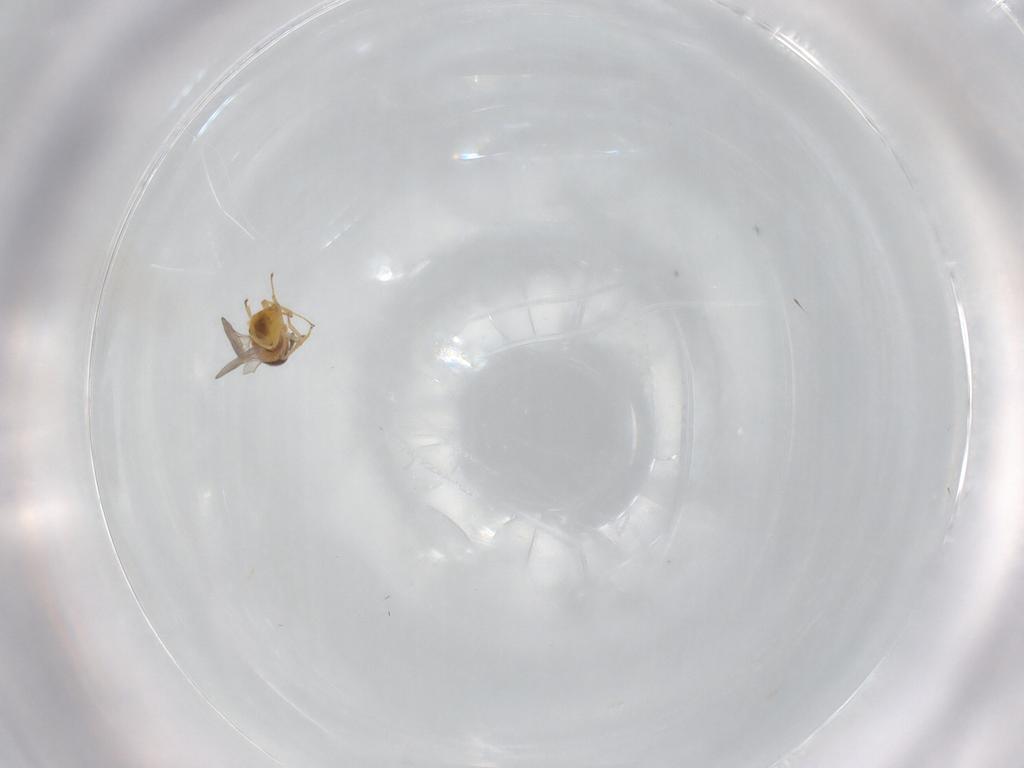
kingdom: Animalia
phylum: Arthropoda
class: Insecta
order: Hymenoptera
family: Encyrtidae
